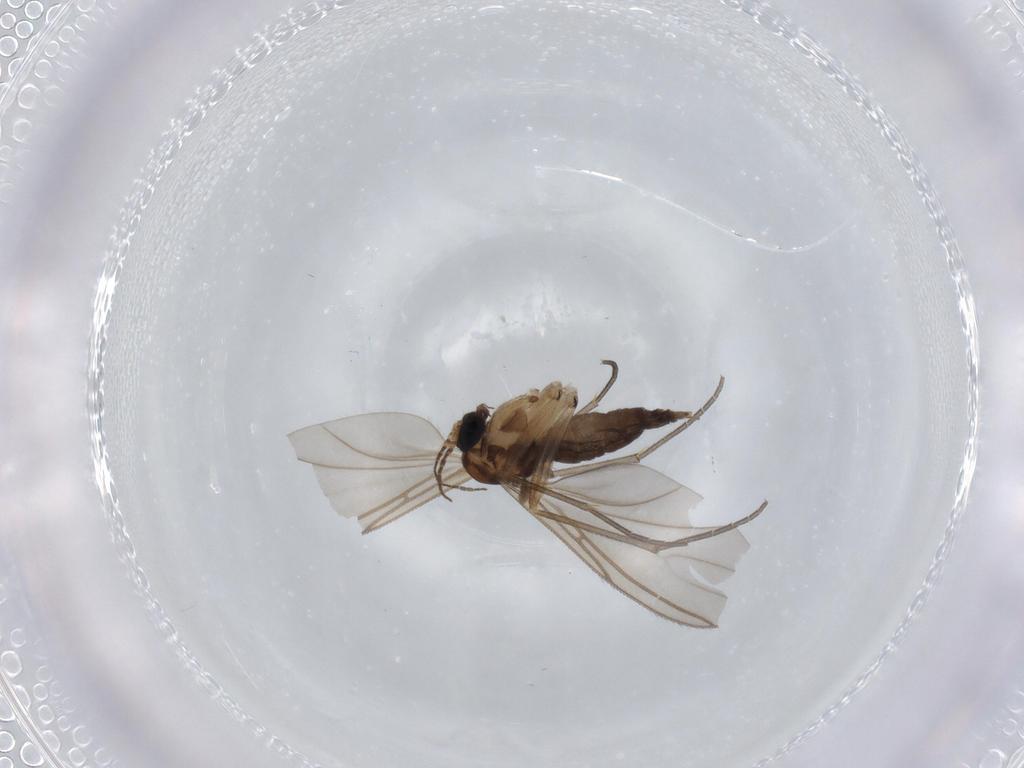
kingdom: Animalia
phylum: Arthropoda
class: Insecta
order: Diptera
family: Sciaridae
